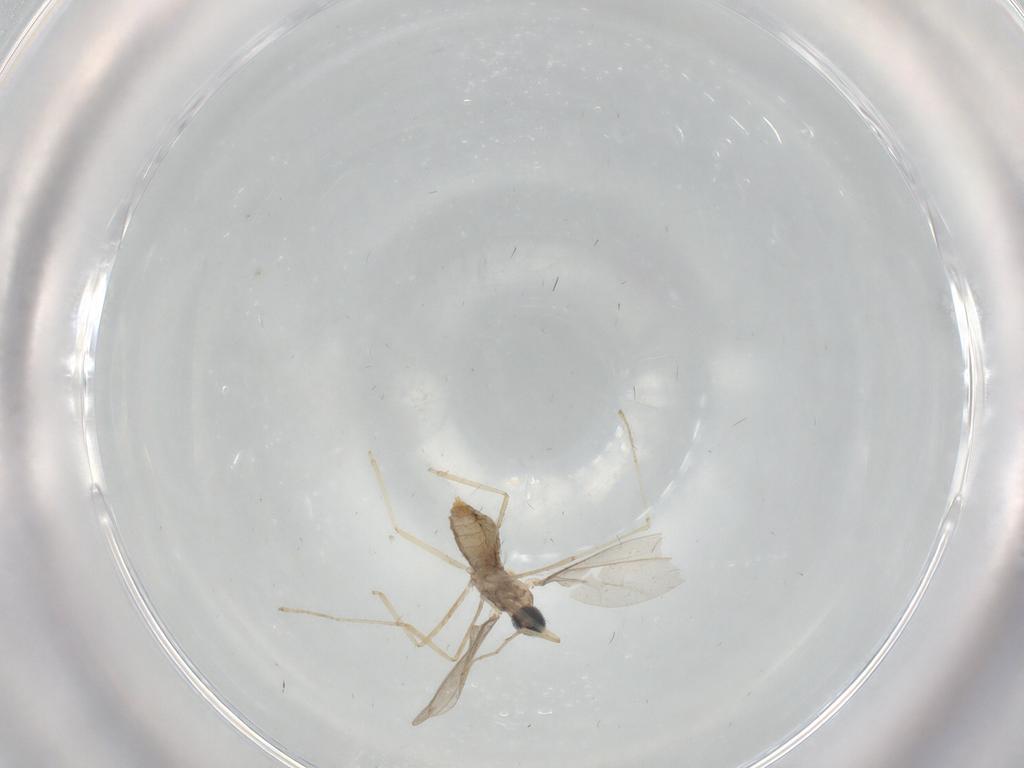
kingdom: Animalia
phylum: Arthropoda
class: Insecta
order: Diptera
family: Cecidomyiidae
